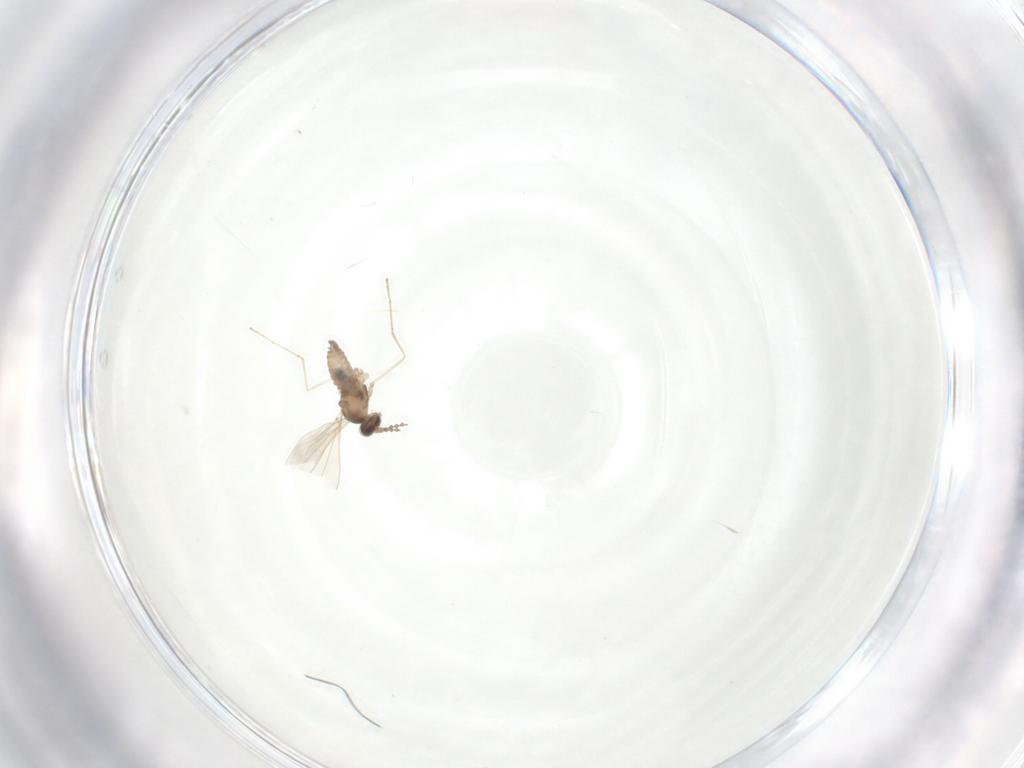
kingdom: Animalia
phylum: Arthropoda
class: Insecta
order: Diptera
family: Cecidomyiidae
